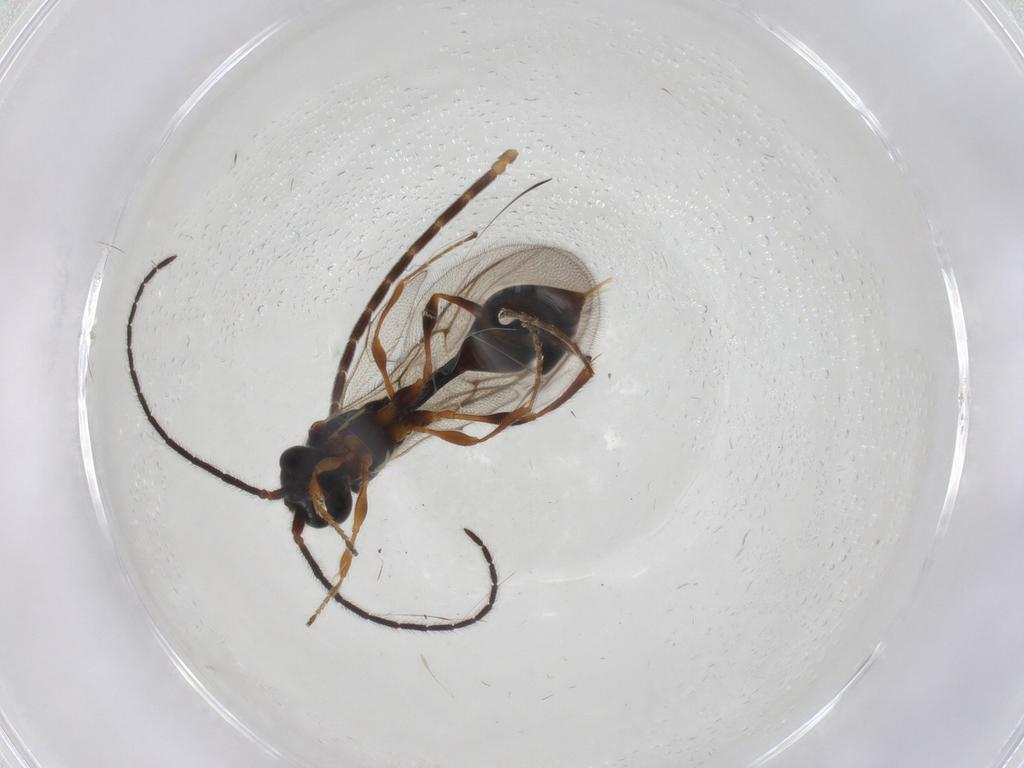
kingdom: Animalia
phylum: Arthropoda
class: Insecta
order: Hymenoptera
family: Diapriidae
